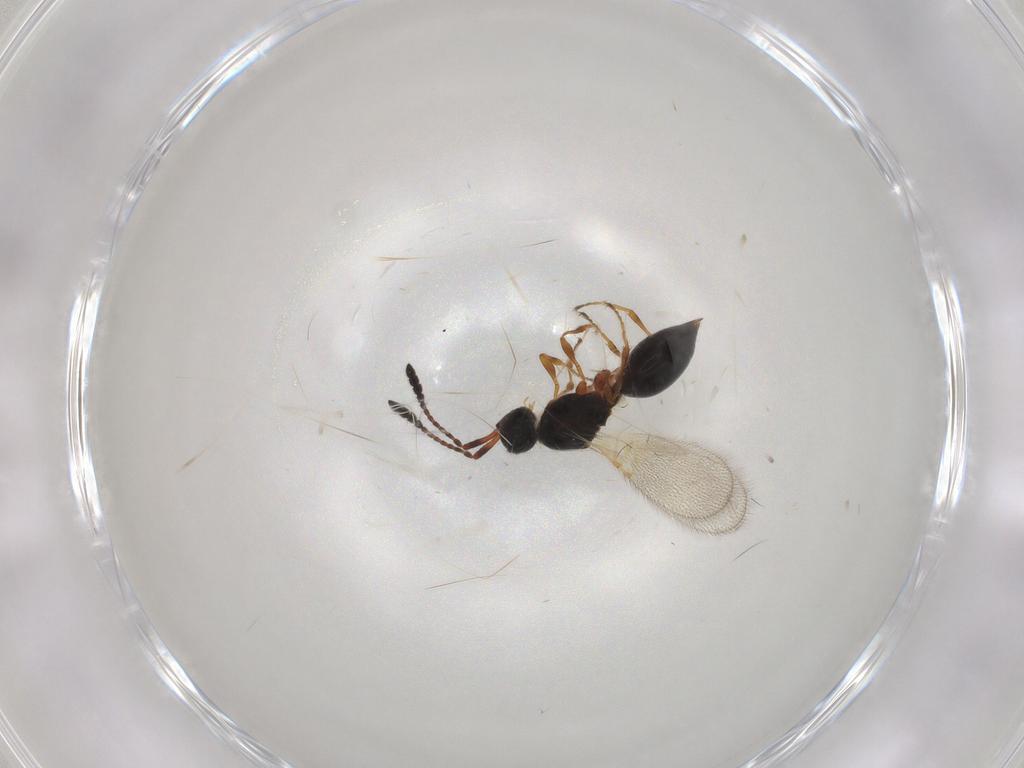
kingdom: Animalia
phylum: Arthropoda
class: Insecta
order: Hymenoptera
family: Diapriidae
